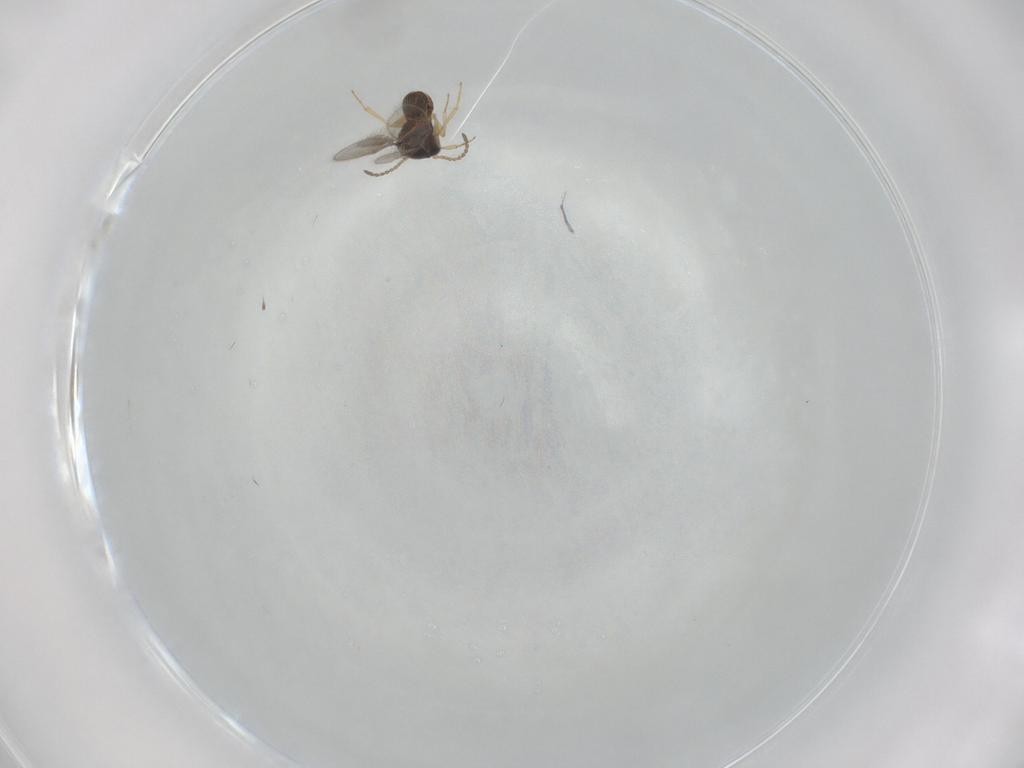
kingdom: Animalia
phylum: Arthropoda
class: Insecta
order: Hymenoptera
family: Scelionidae
